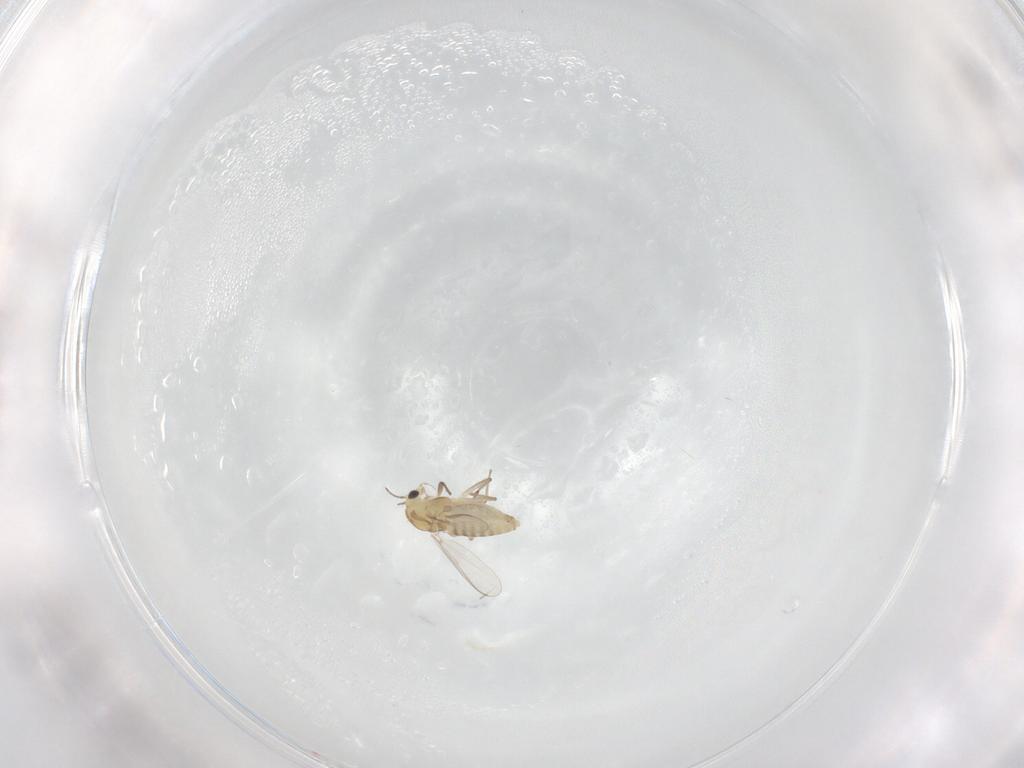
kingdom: Animalia
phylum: Arthropoda
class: Insecta
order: Diptera
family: Chironomidae
